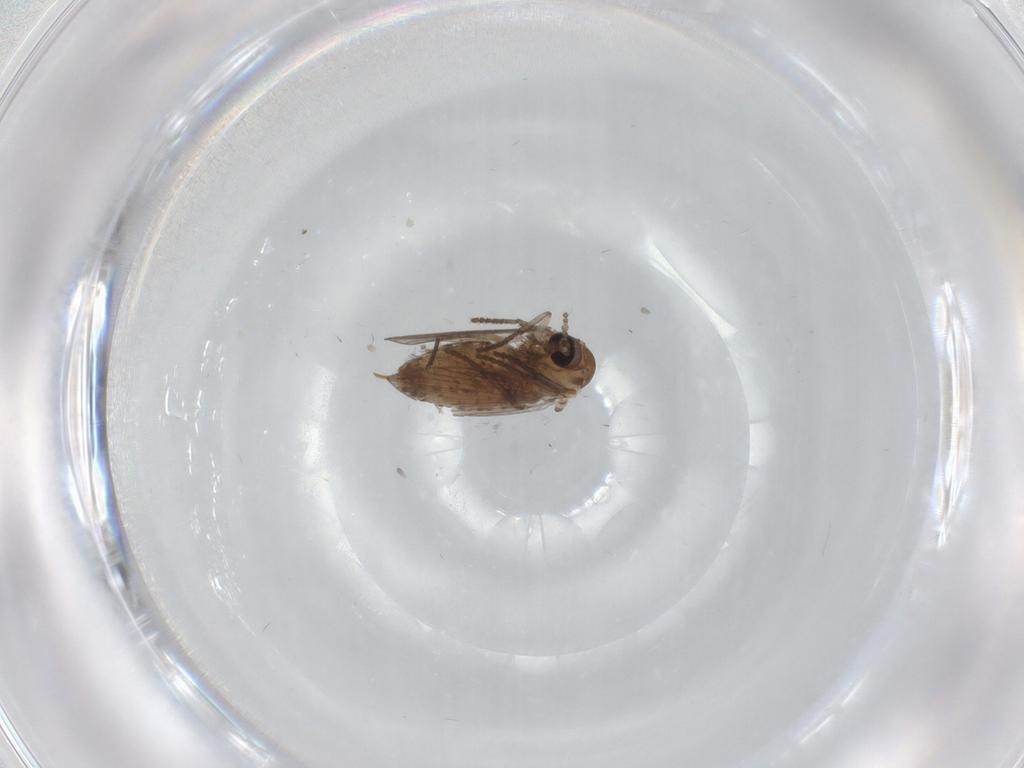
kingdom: Animalia
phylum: Arthropoda
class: Insecta
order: Diptera
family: Psychodidae
